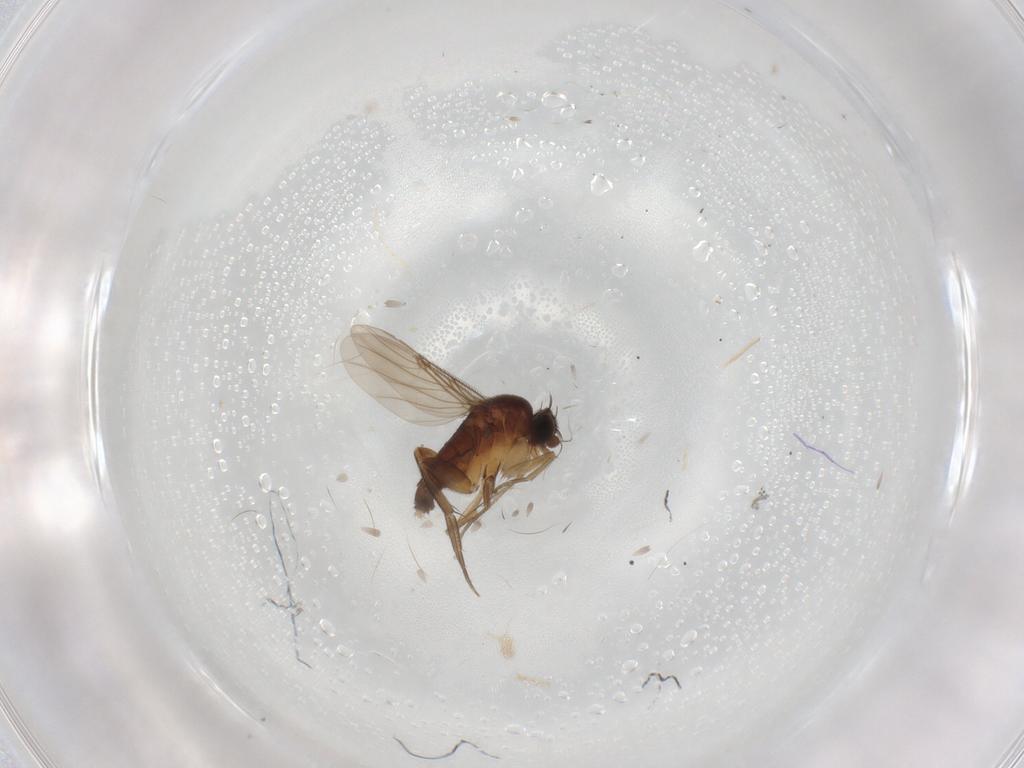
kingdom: Animalia
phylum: Arthropoda
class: Insecta
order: Diptera
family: Phoridae
